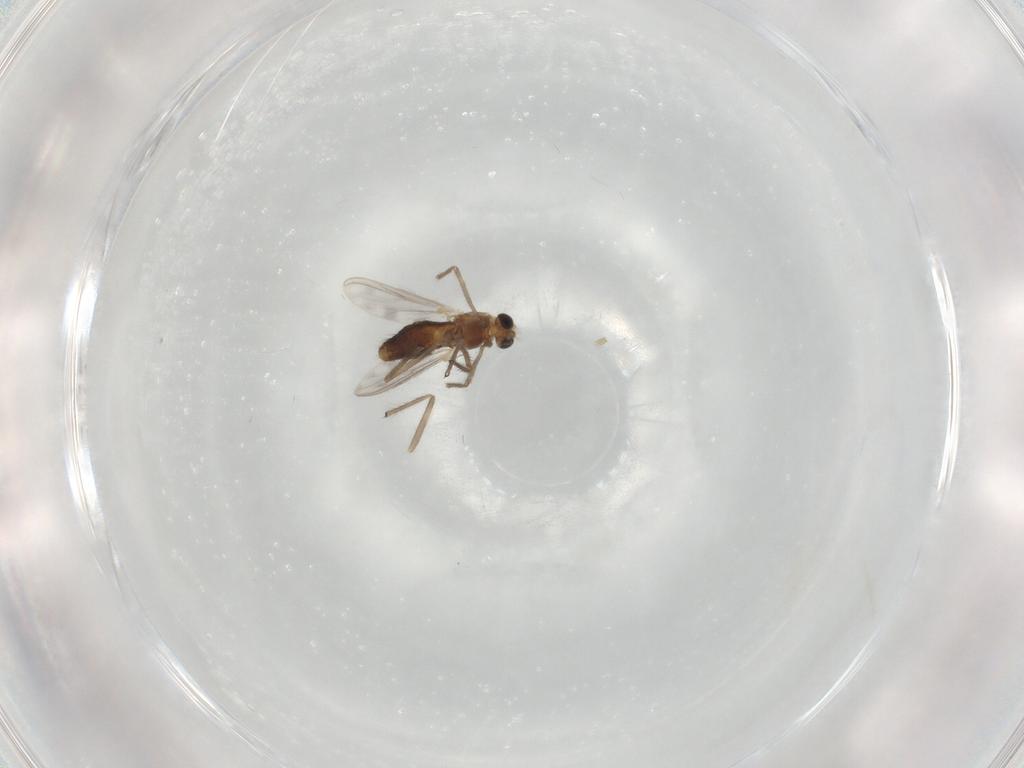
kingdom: Animalia
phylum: Arthropoda
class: Insecta
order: Diptera
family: Chironomidae
